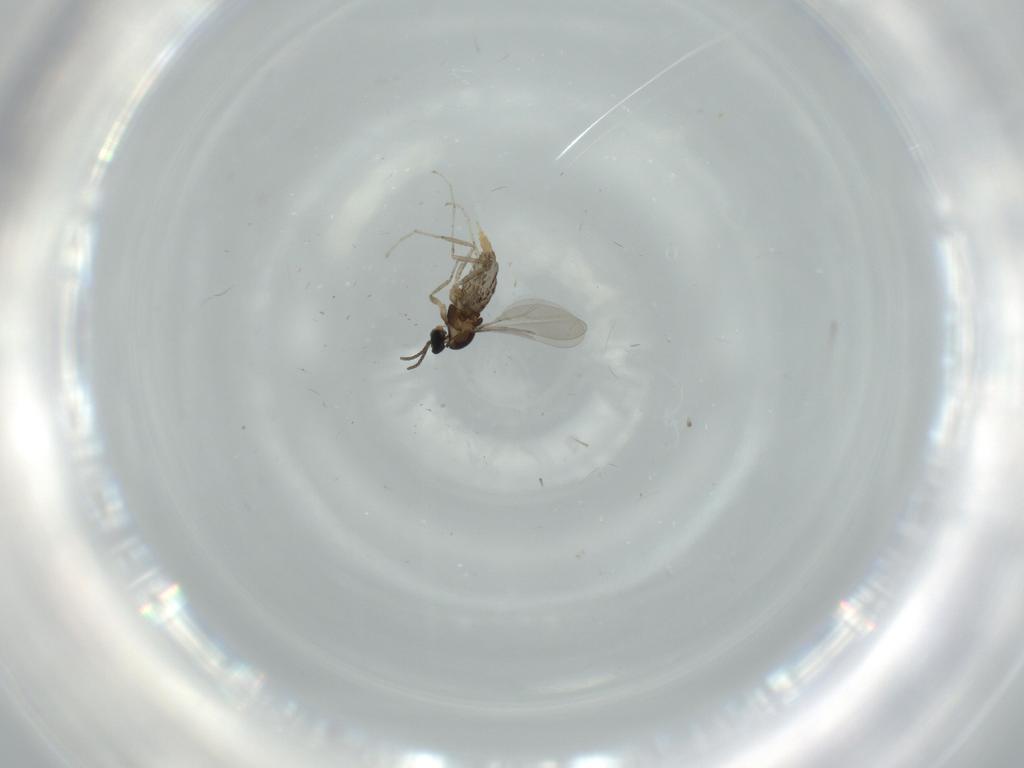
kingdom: Animalia
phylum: Arthropoda
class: Insecta
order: Diptera
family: Cecidomyiidae
